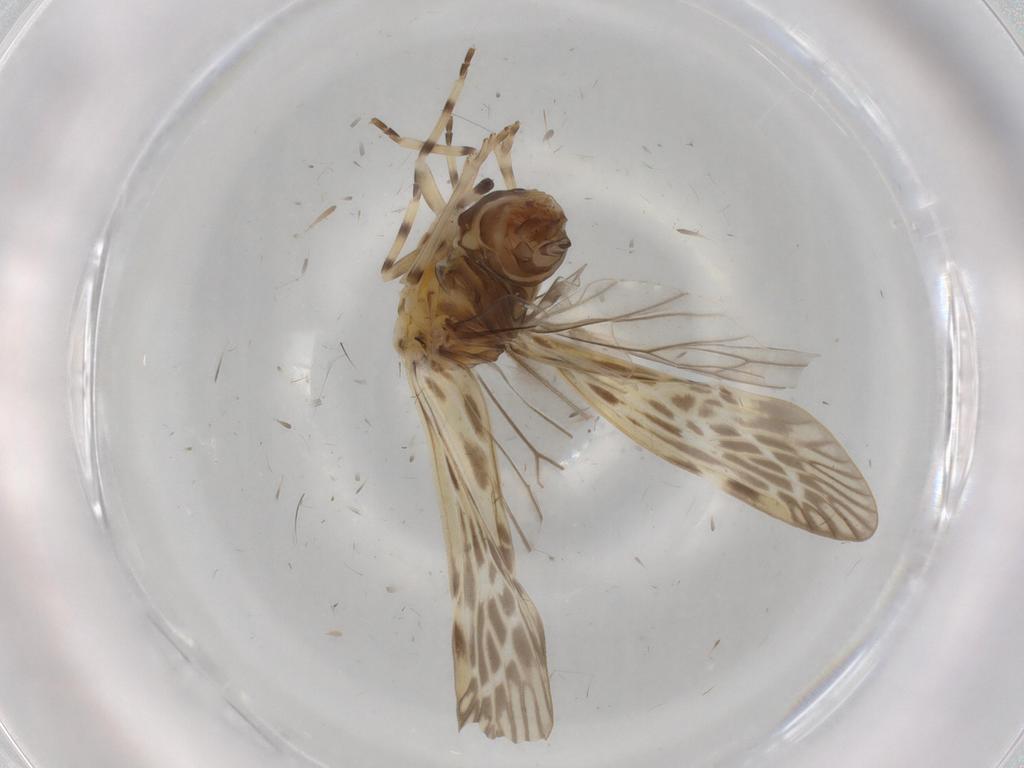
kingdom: Animalia
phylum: Arthropoda
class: Insecta
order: Hemiptera
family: Derbidae
